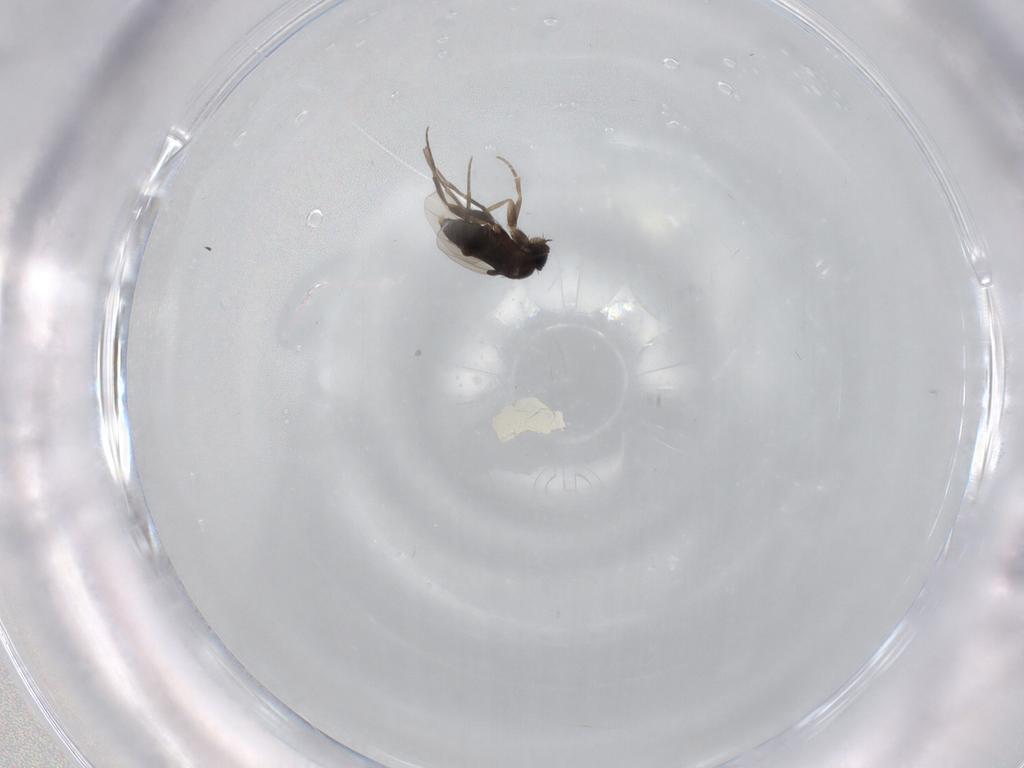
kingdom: Animalia
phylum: Arthropoda
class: Insecta
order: Diptera
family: Phoridae
